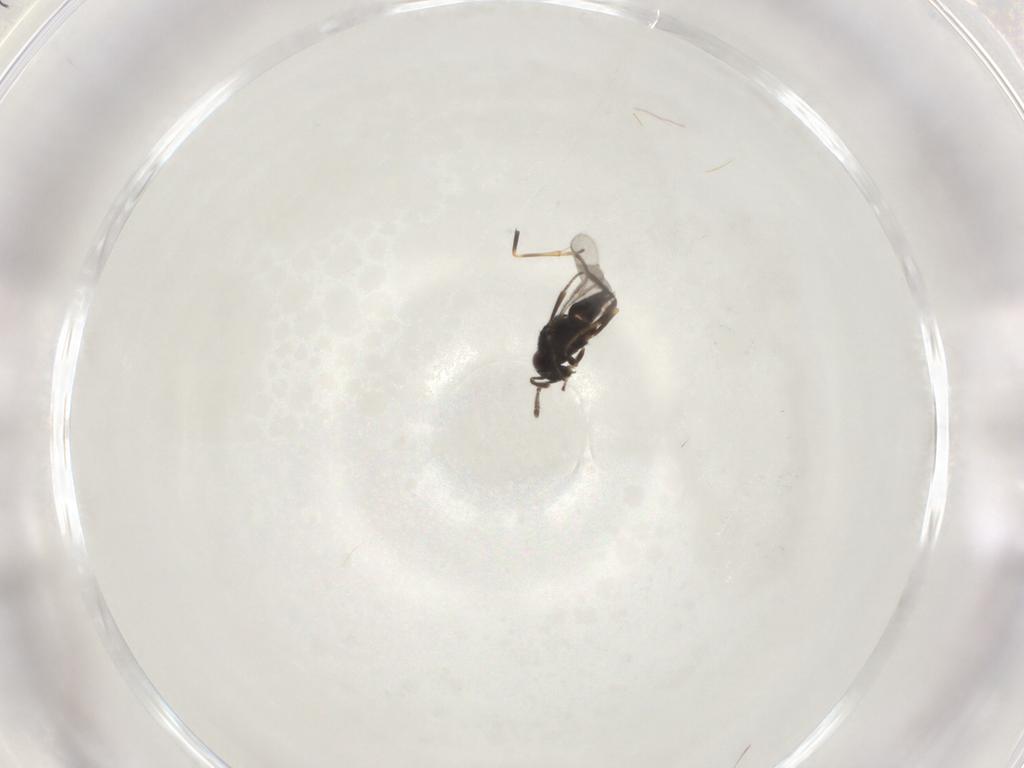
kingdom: Animalia
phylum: Arthropoda
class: Insecta
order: Hymenoptera
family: Encyrtidae
